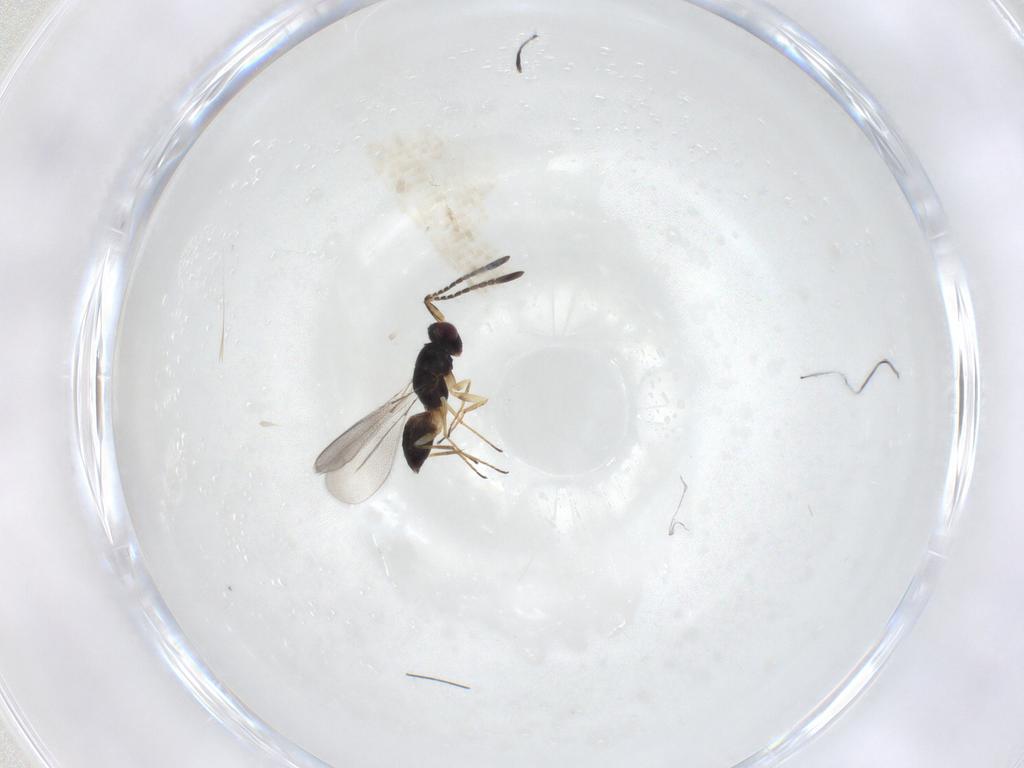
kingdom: Animalia
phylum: Arthropoda
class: Insecta
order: Hymenoptera
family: Mymaridae
